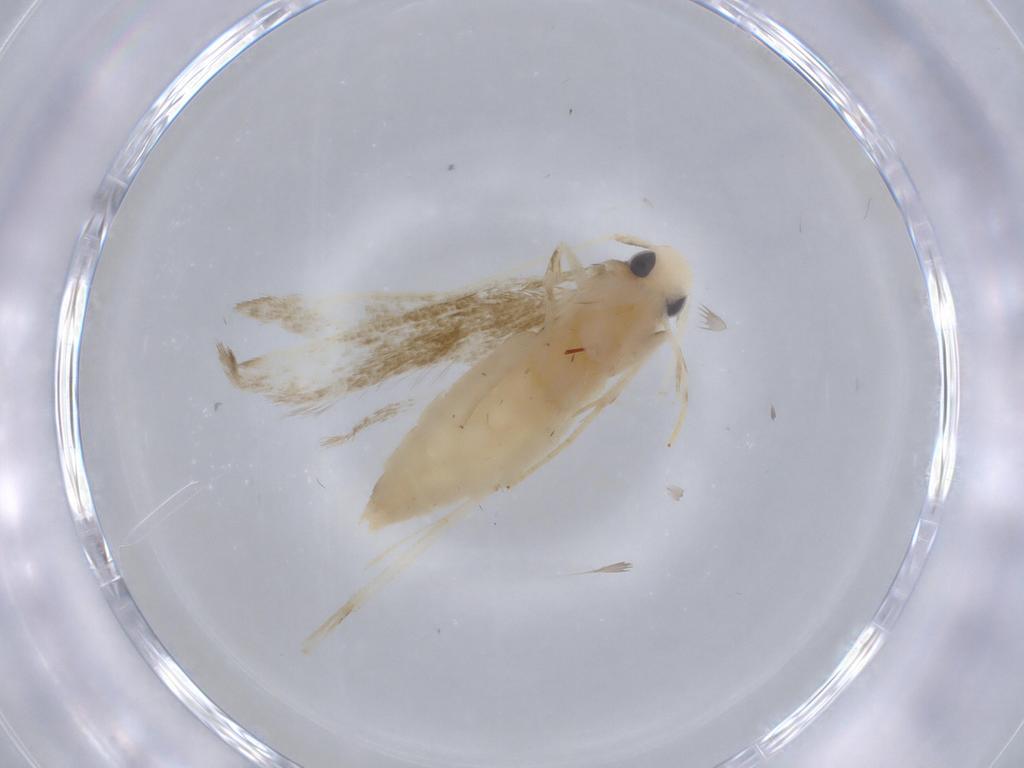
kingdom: Animalia
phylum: Arthropoda
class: Insecta
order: Lepidoptera
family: Oecophoridae
